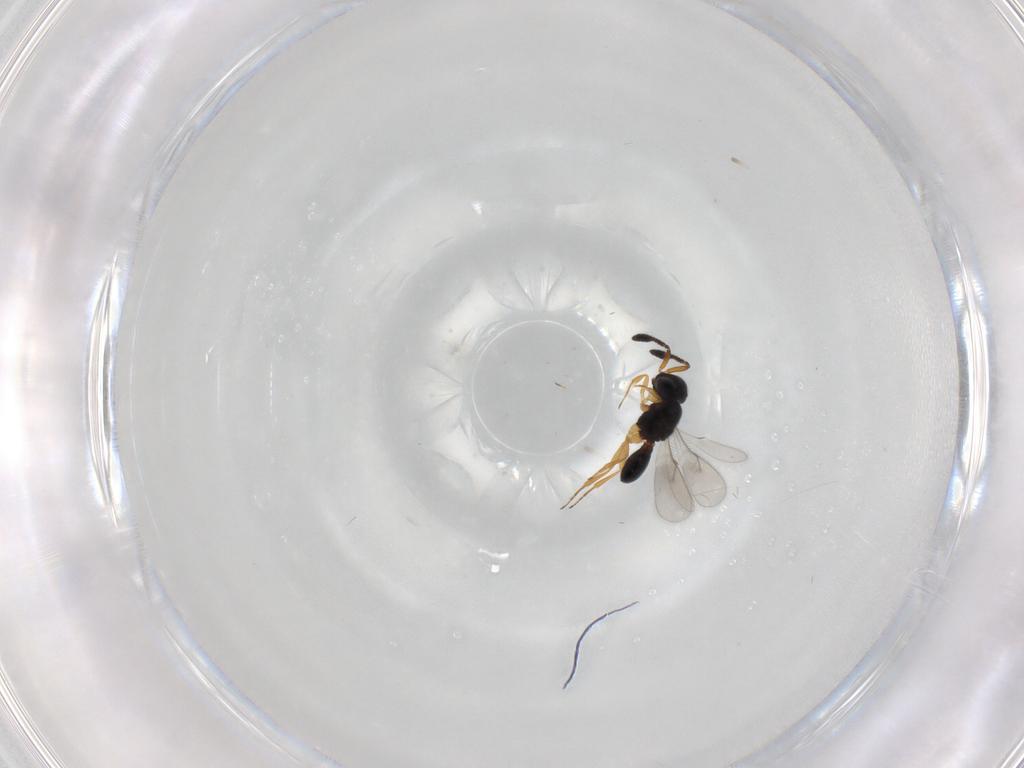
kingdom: Animalia
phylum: Arthropoda
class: Insecta
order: Hymenoptera
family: Scelionidae
